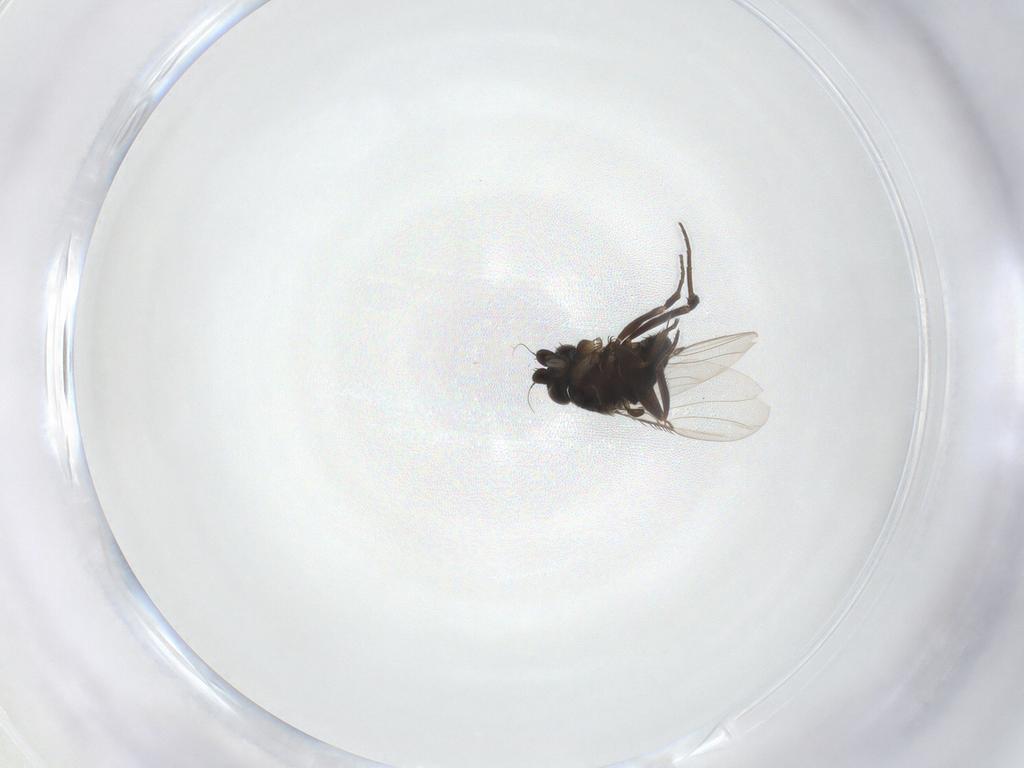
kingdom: Animalia
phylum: Arthropoda
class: Insecta
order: Diptera
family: Phoridae
